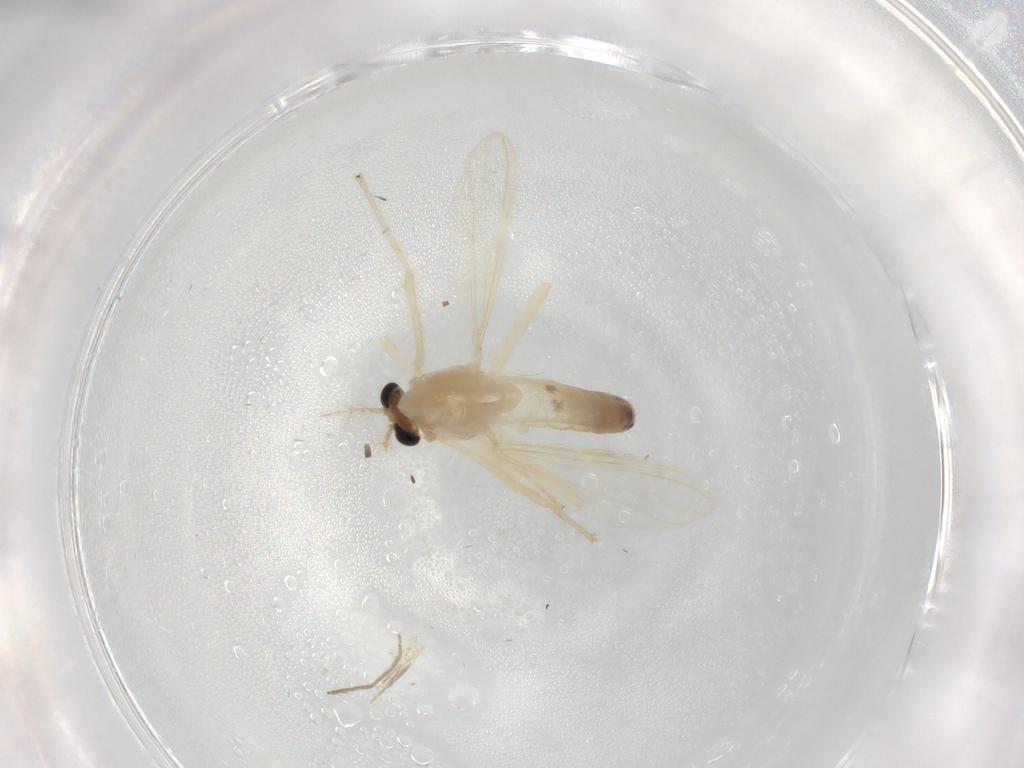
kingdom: Animalia
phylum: Arthropoda
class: Insecta
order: Diptera
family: Chironomidae
